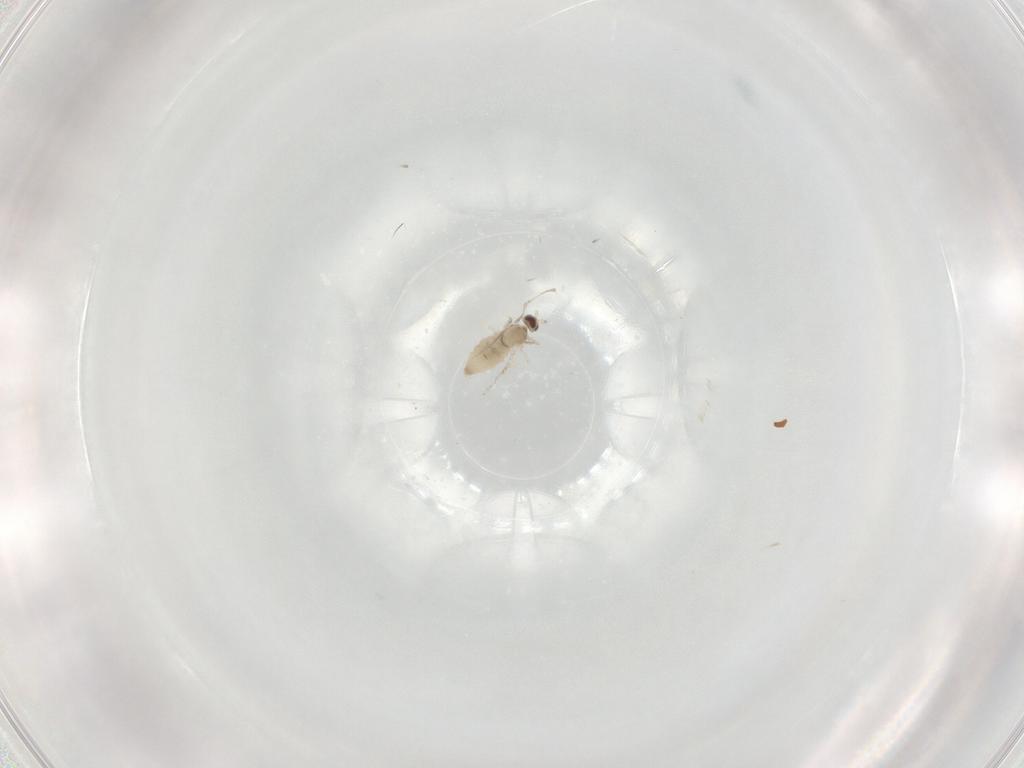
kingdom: Animalia
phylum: Arthropoda
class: Insecta
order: Diptera
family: Cecidomyiidae
